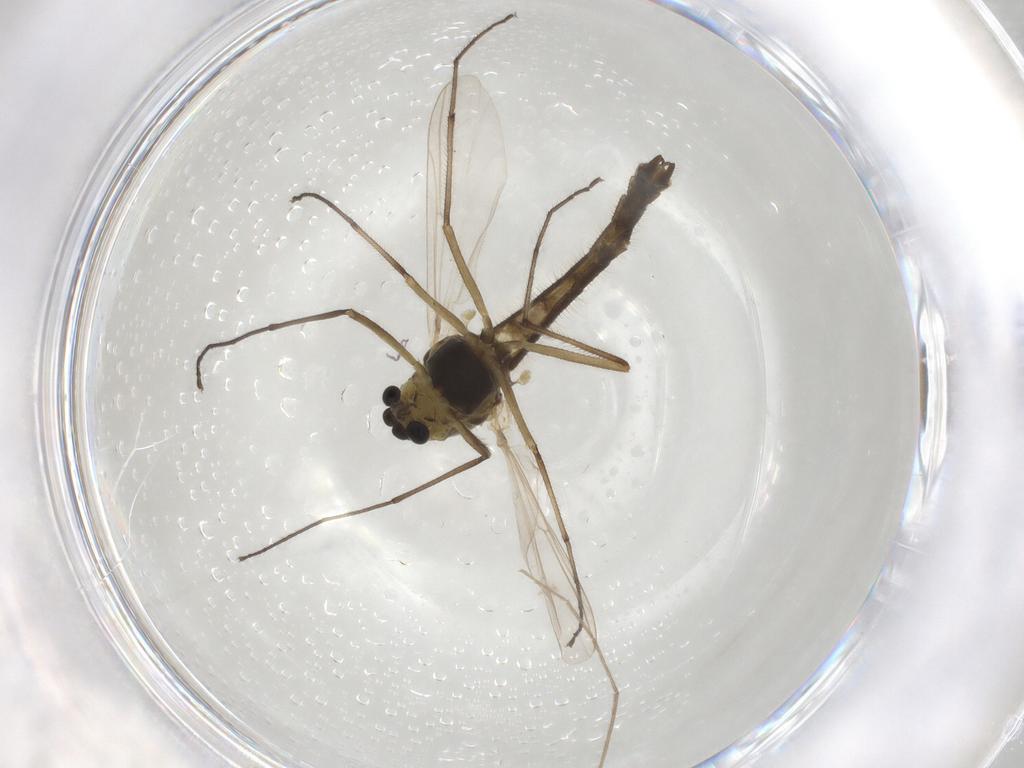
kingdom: Animalia
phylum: Arthropoda
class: Insecta
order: Diptera
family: Chironomidae
